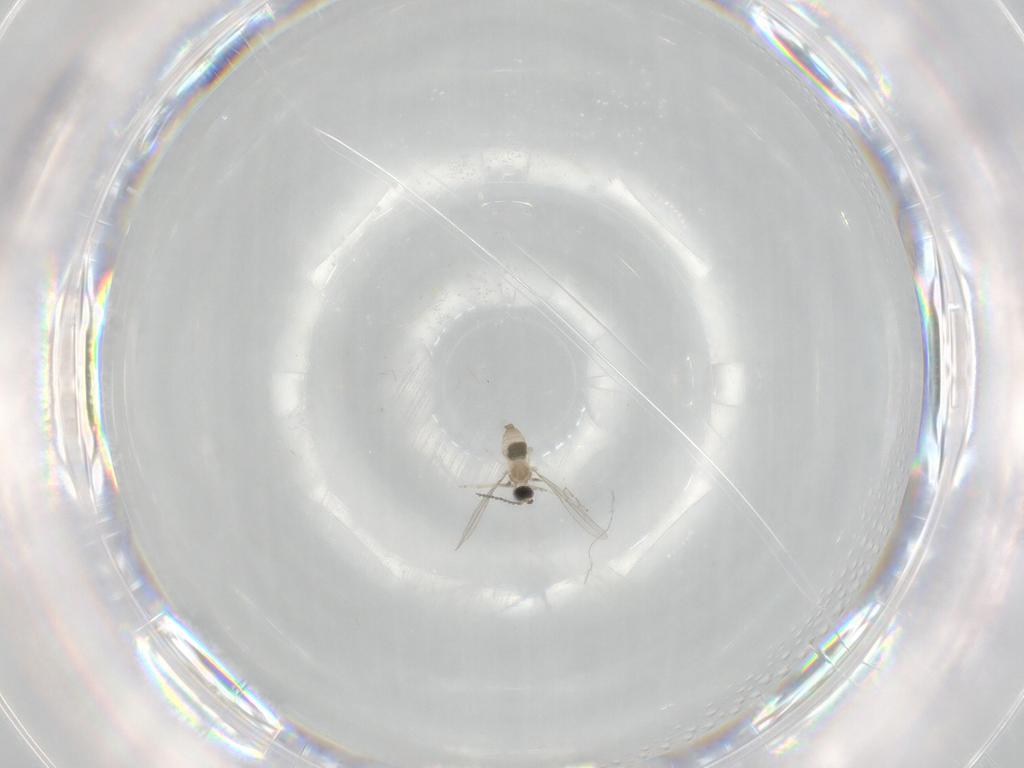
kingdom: Animalia
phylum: Arthropoda
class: Insecta
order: Diptera
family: Cecidomyiidae
